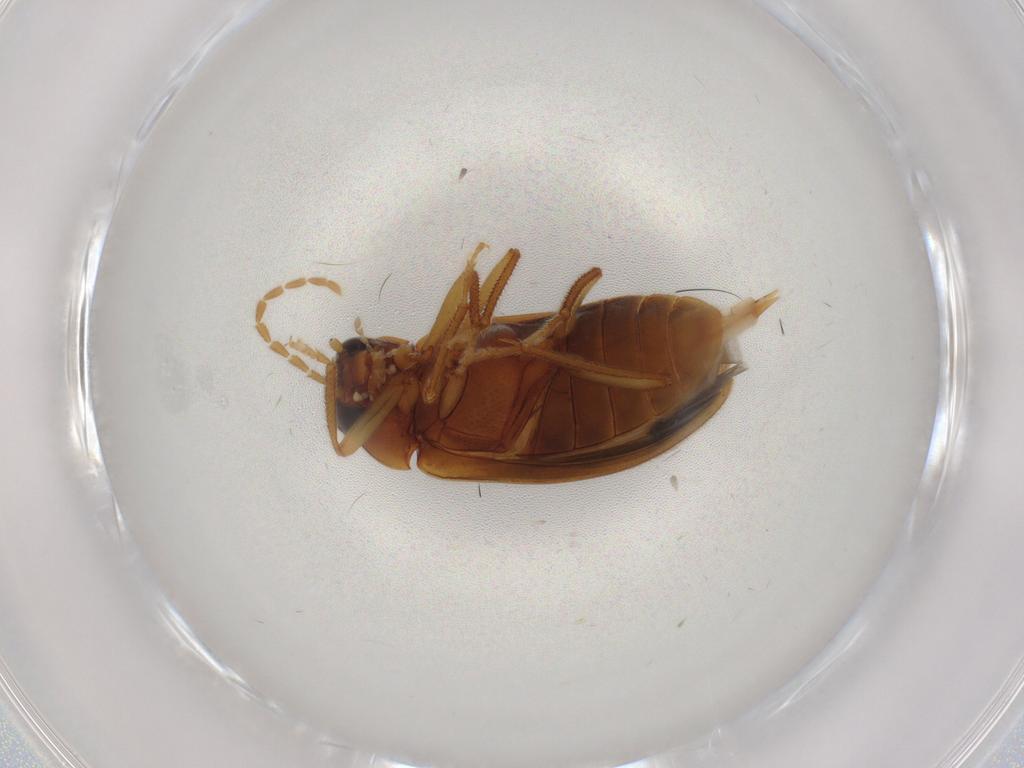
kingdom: Animalia
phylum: Arthropoda
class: Insecta
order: Coleoptera
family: Ptilodactylidae
